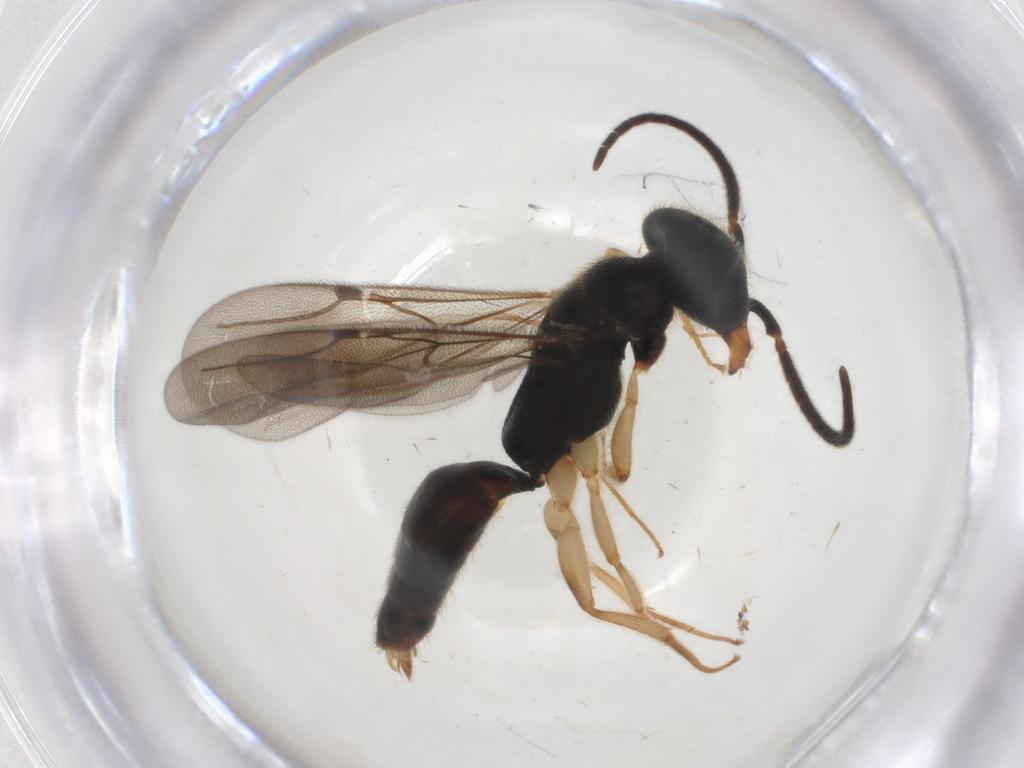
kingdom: Animalia
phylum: Arthropoda
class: Insecta
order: Hymenoptera
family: Bethylidae
